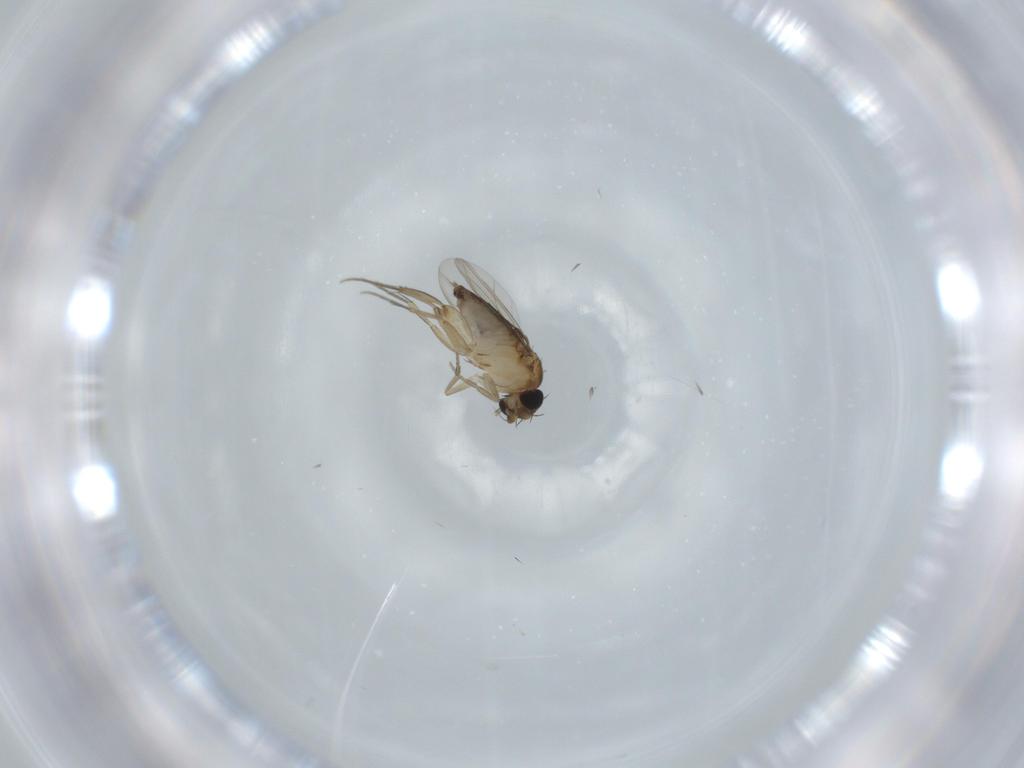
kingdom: Animalia
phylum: Arthropoda
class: Insecta
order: Diptera
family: Phoridae
